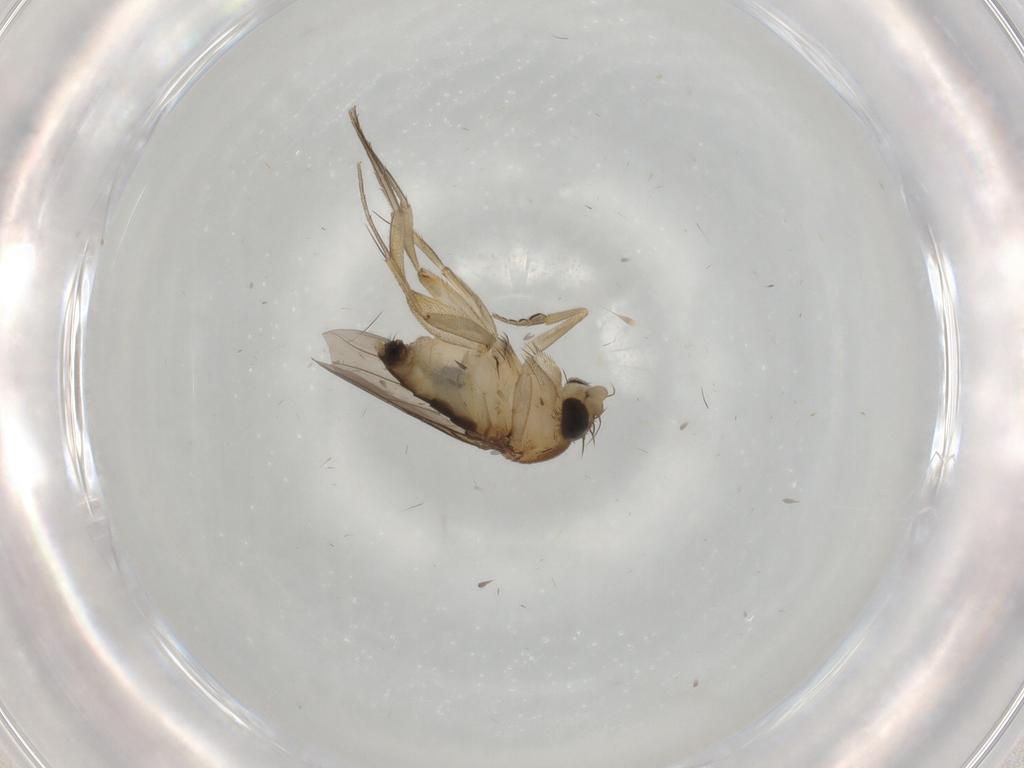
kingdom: Animalia
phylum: Arthropoda
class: Insecta
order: Diptera
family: Phoridae
